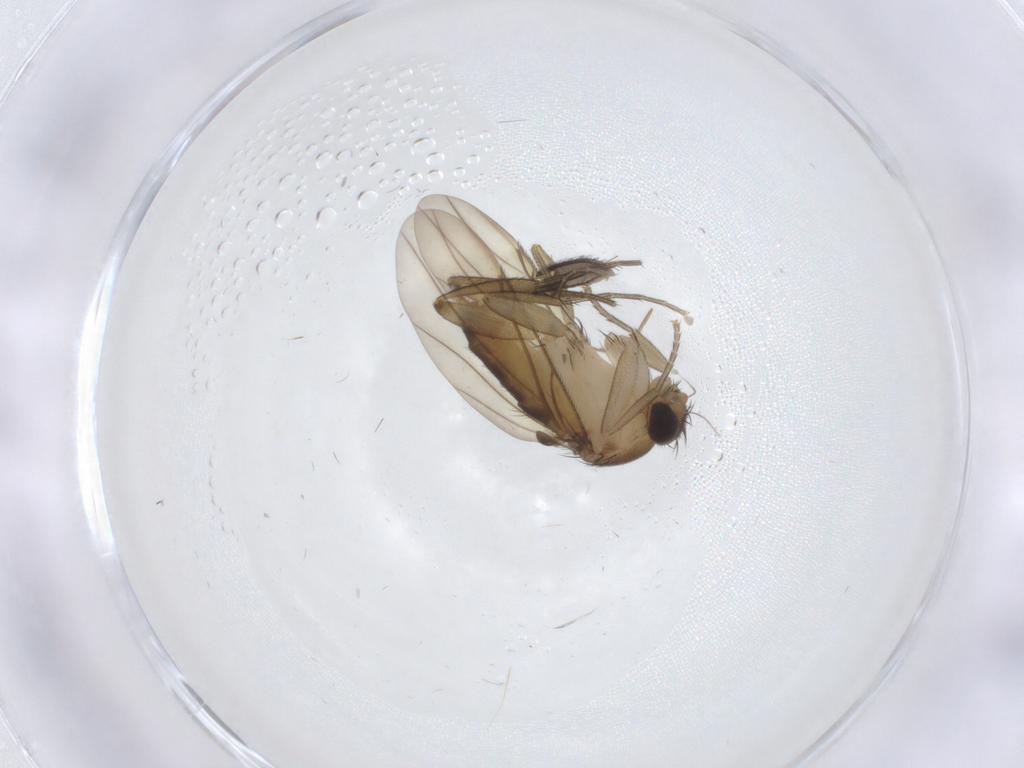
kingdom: Animalia
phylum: Arthropoda
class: Insecta
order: Diptera
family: Phoridae
